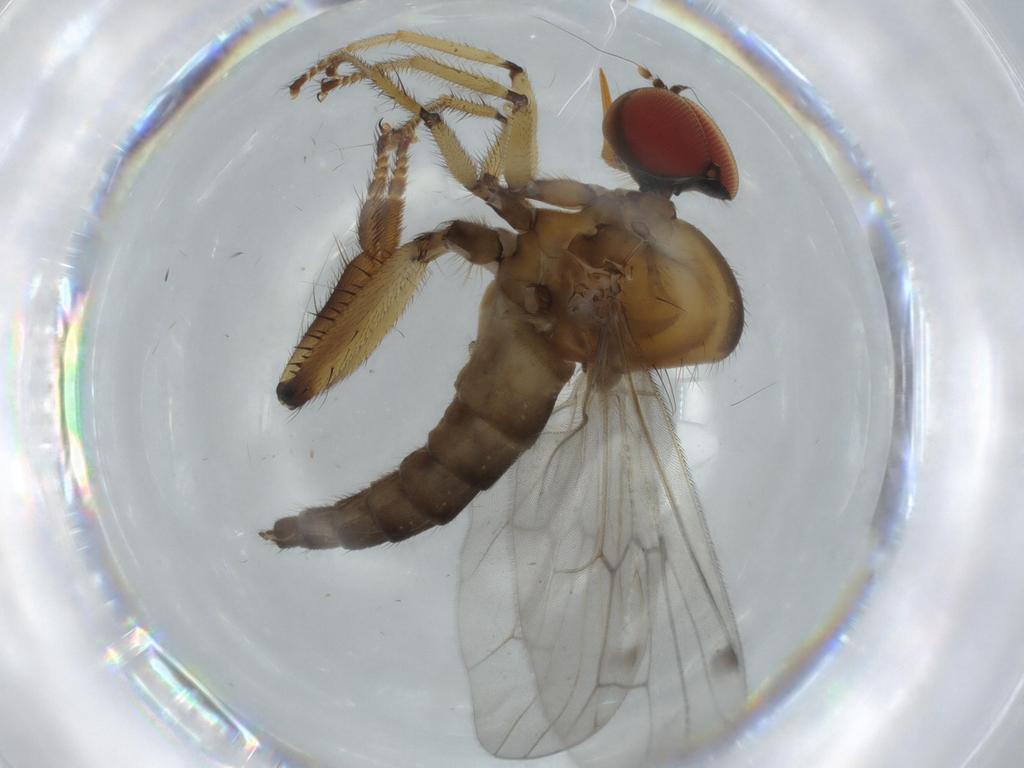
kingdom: Animalia
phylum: Arthropoda
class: Insecta
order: Diptera
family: Hybotidae
